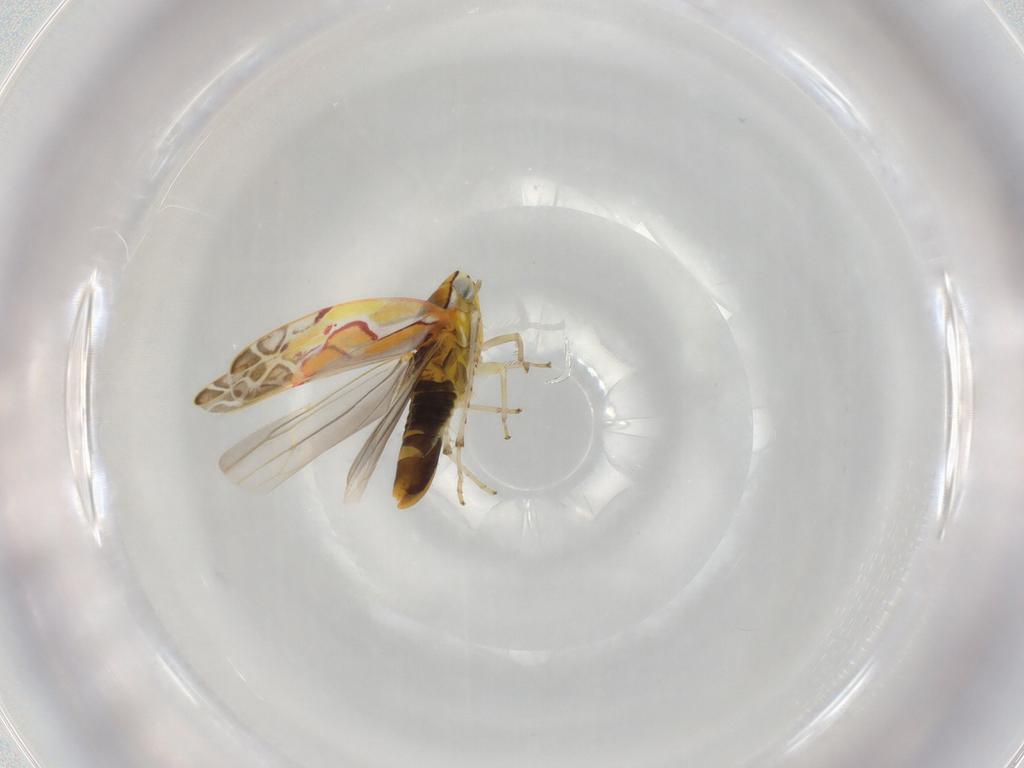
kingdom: Animalia
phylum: Arthropoda
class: Insecta
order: Hemiptera
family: Cicadellidae
